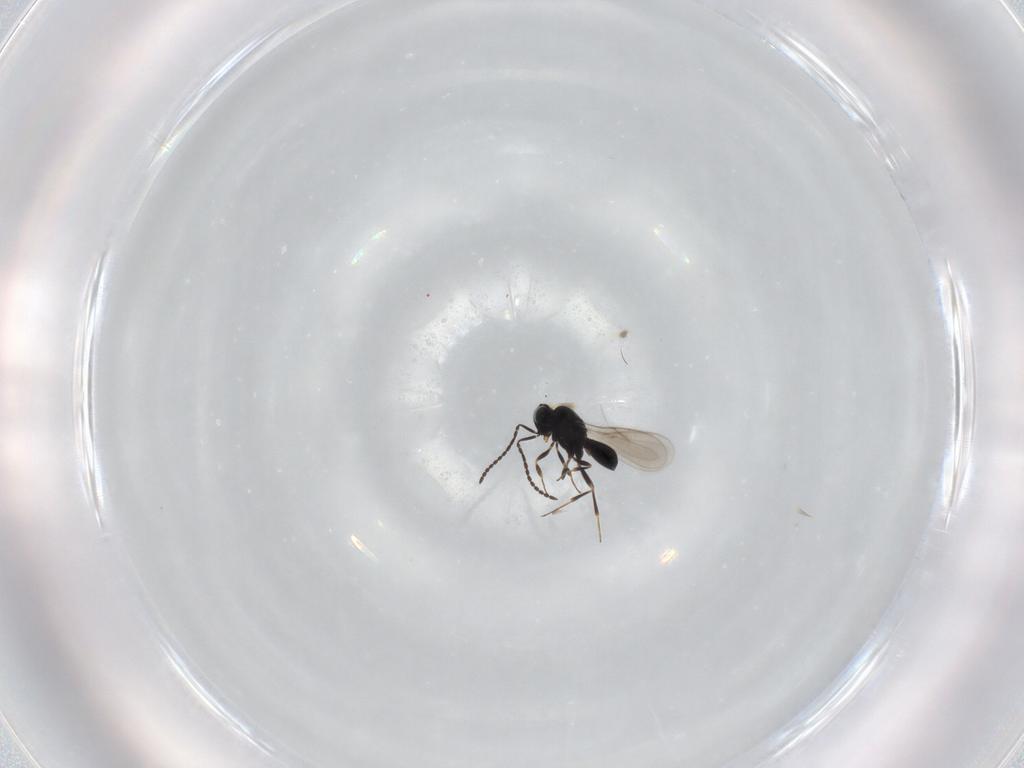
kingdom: Animalia
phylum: Arthropoda
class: Insecta
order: Hymenoptera
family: Scelionidae
